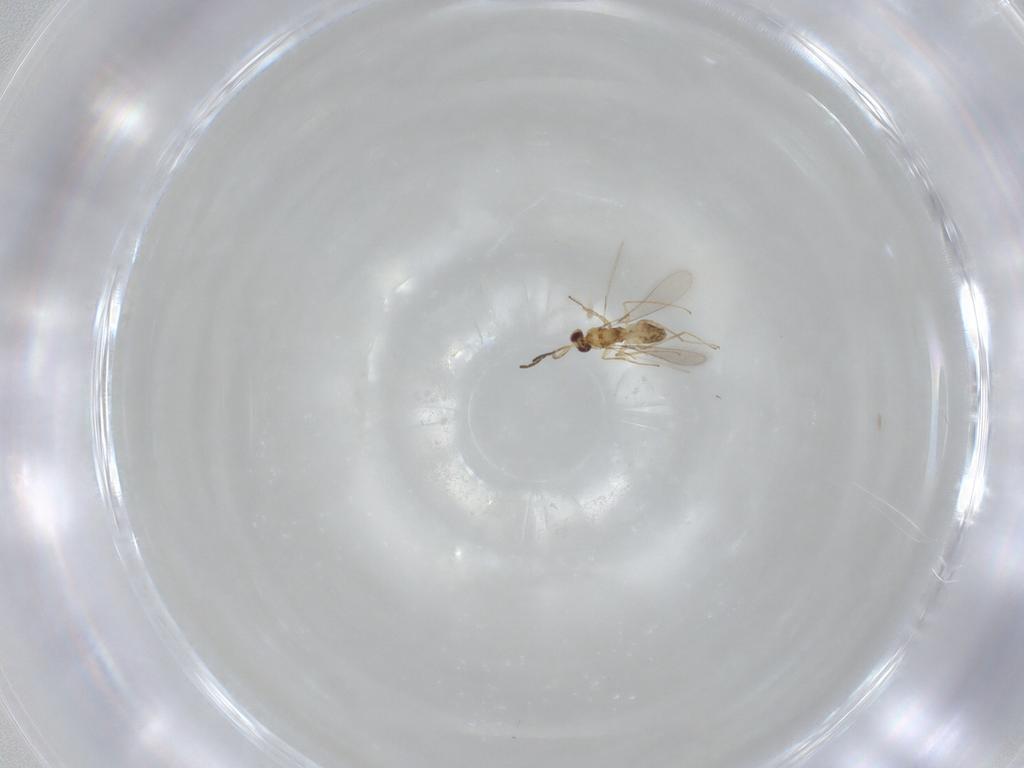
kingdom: Animalia
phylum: Arthropoda
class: Insecta
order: Hymenoptera
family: Mymaridae
